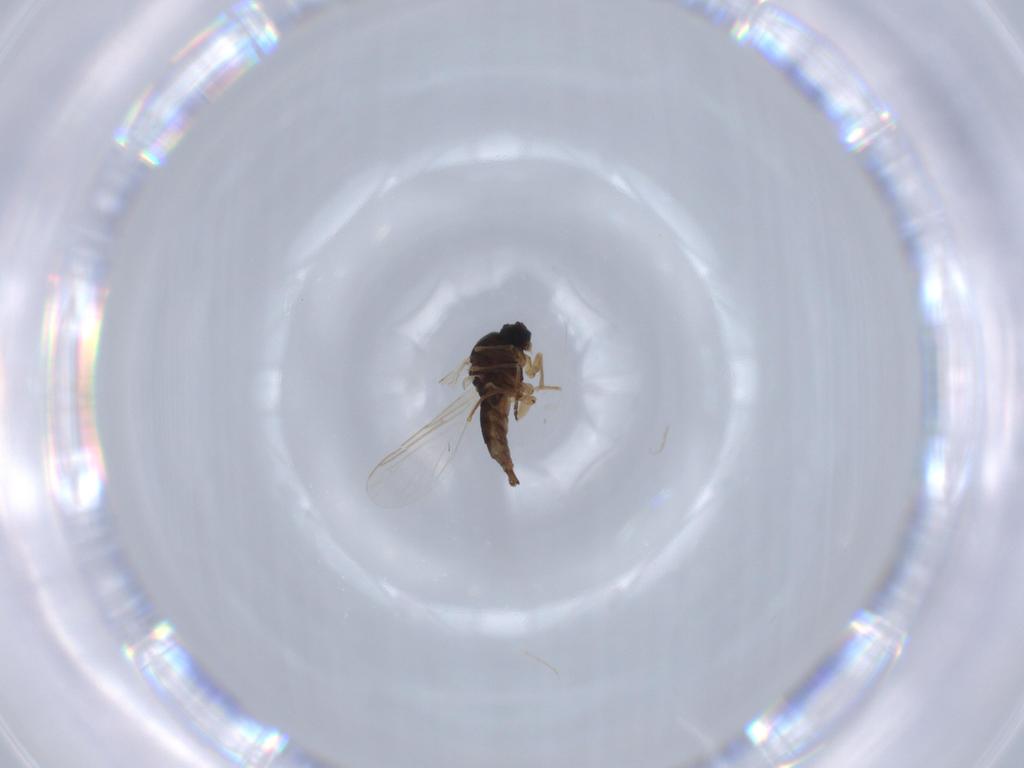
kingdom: Animalia
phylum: Arthropoda
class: Insecta
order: Diptera
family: Sciaridae
